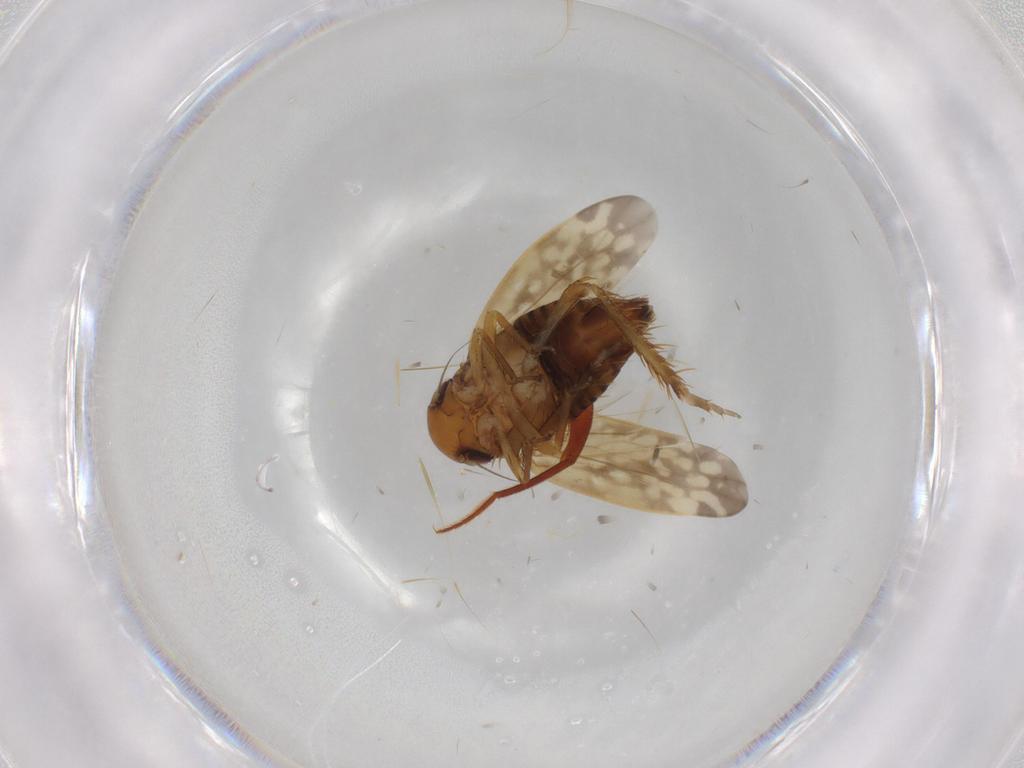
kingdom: Animalia
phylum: Arthropoda
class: Insecta
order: Hemiptera
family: Cicadellidae
